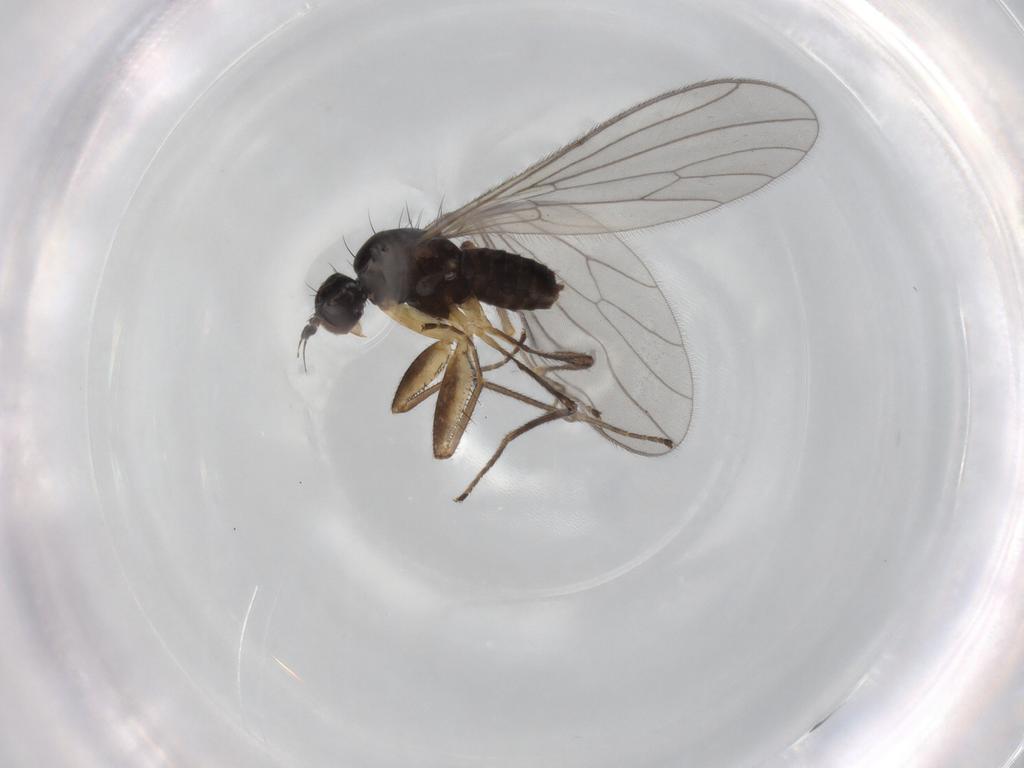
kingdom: Animalia
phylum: Arthropoda
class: Insecta
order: Diptera
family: Empididae
